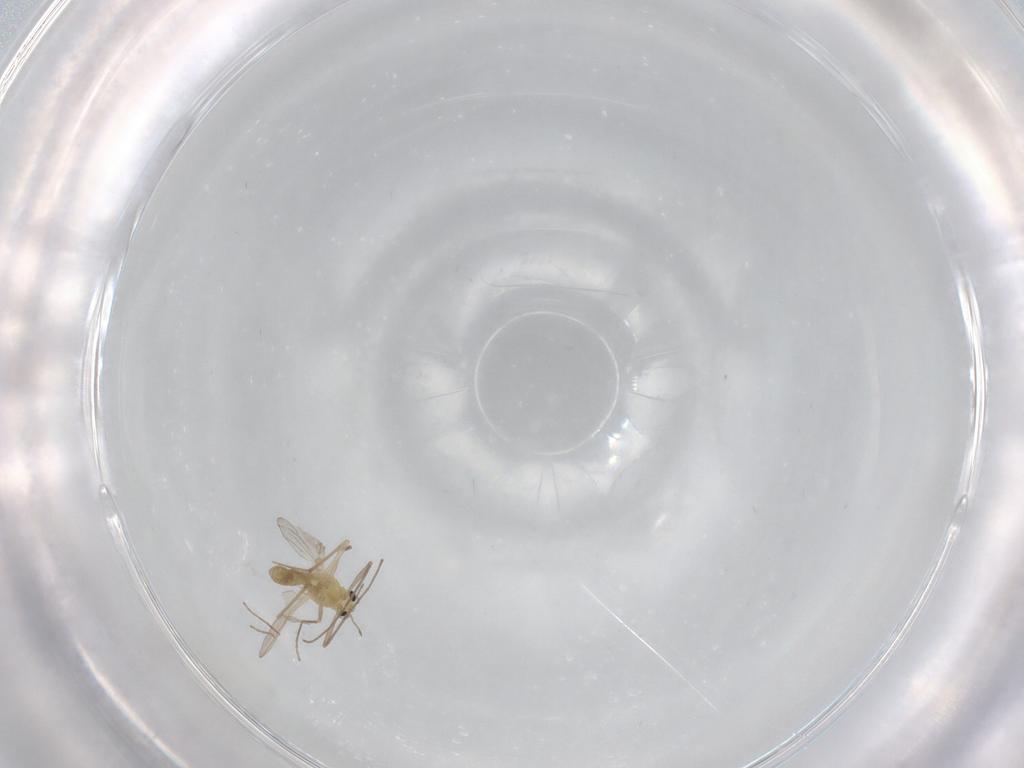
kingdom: Animalia
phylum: Arthropoda
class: Insecta
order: Diptera
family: Chironomidae
